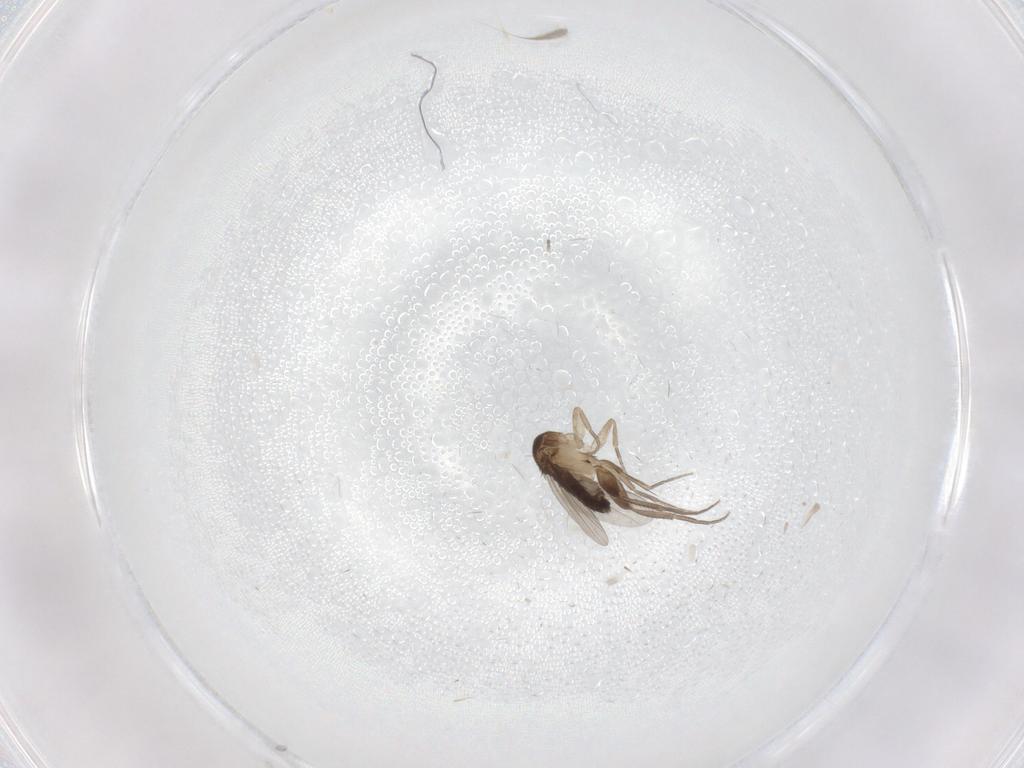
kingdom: Animalia
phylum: Arthropoda
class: Insecta
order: Diptera
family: Phoridae
